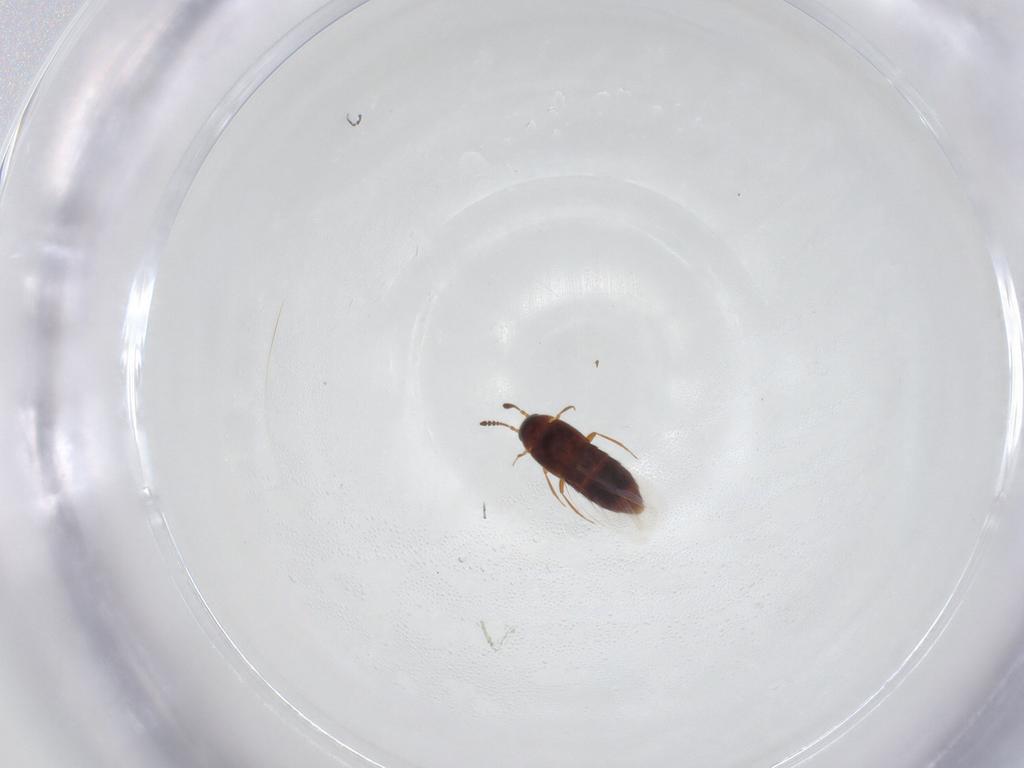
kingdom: Animalia
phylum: Arthropoda
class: Insecta
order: Coleoptera
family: Staphylinidae
